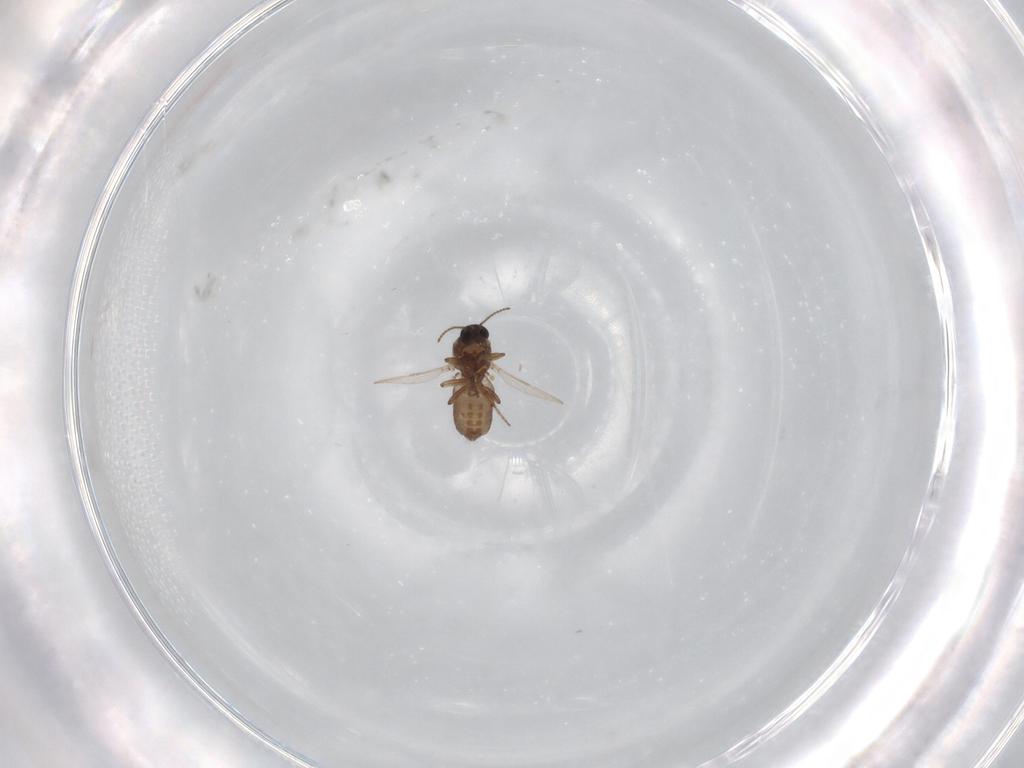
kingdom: Animalia
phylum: Arthropoda
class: Insecta
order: Diptera
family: Ceratopogonidae
